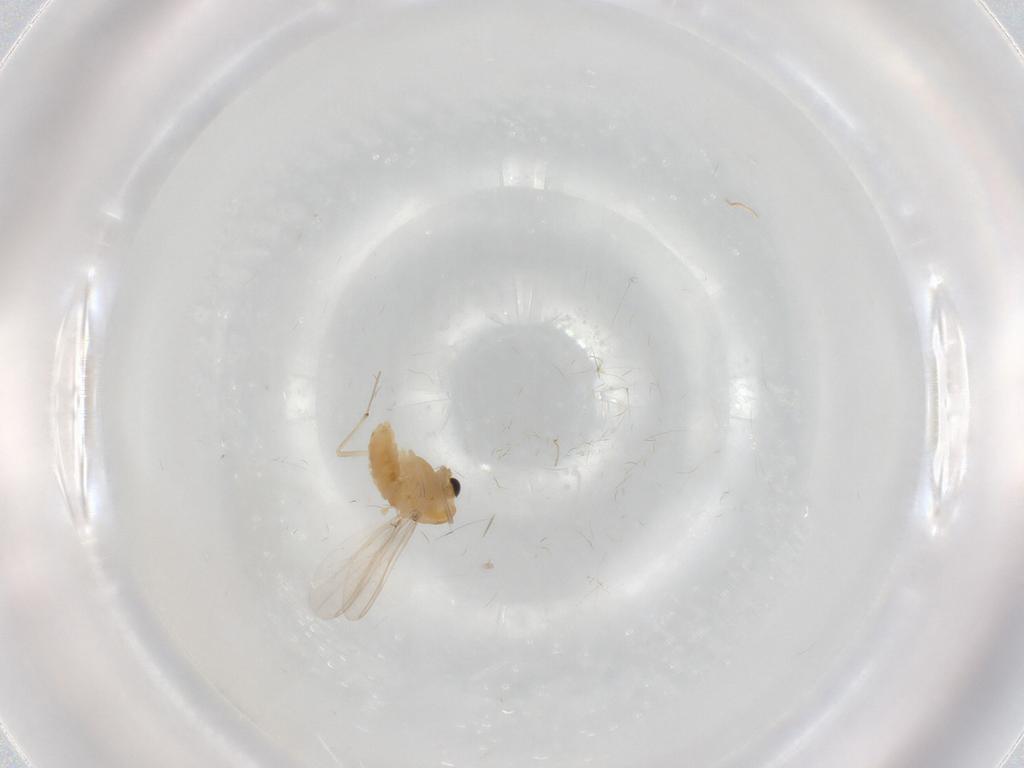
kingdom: Animalia
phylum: Arthropoda
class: Insecta
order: Diptera
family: Chironomidae
